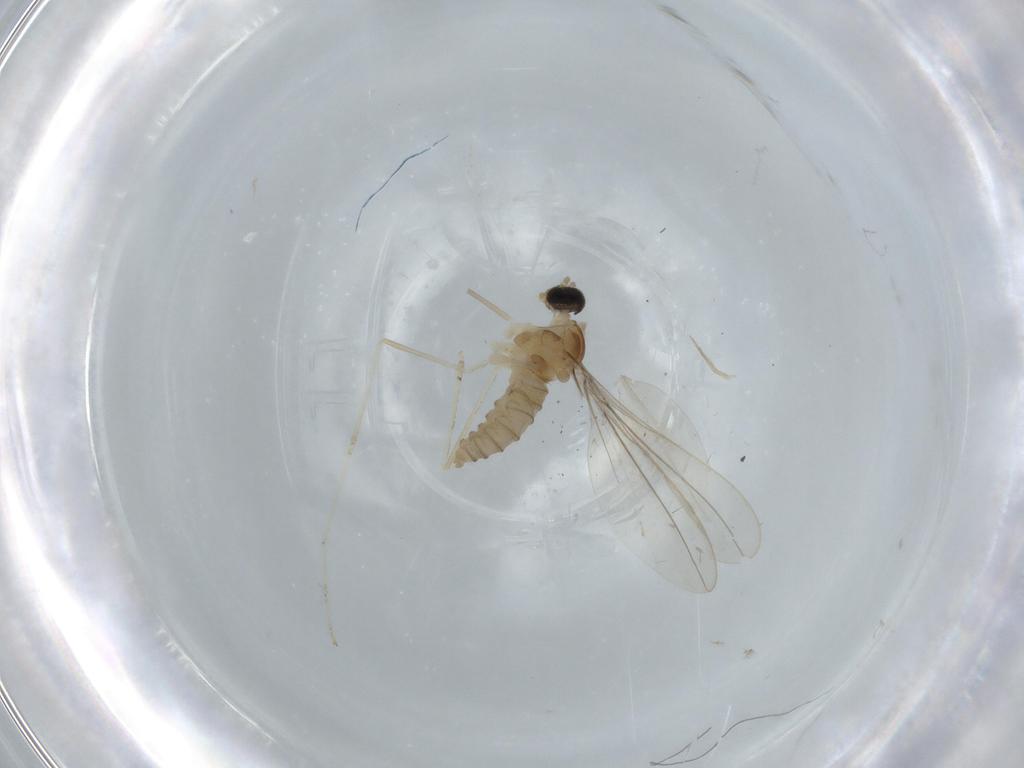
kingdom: Animalia
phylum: Arthropoda
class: Insecta
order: Diptera
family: Cecidomyiidae
